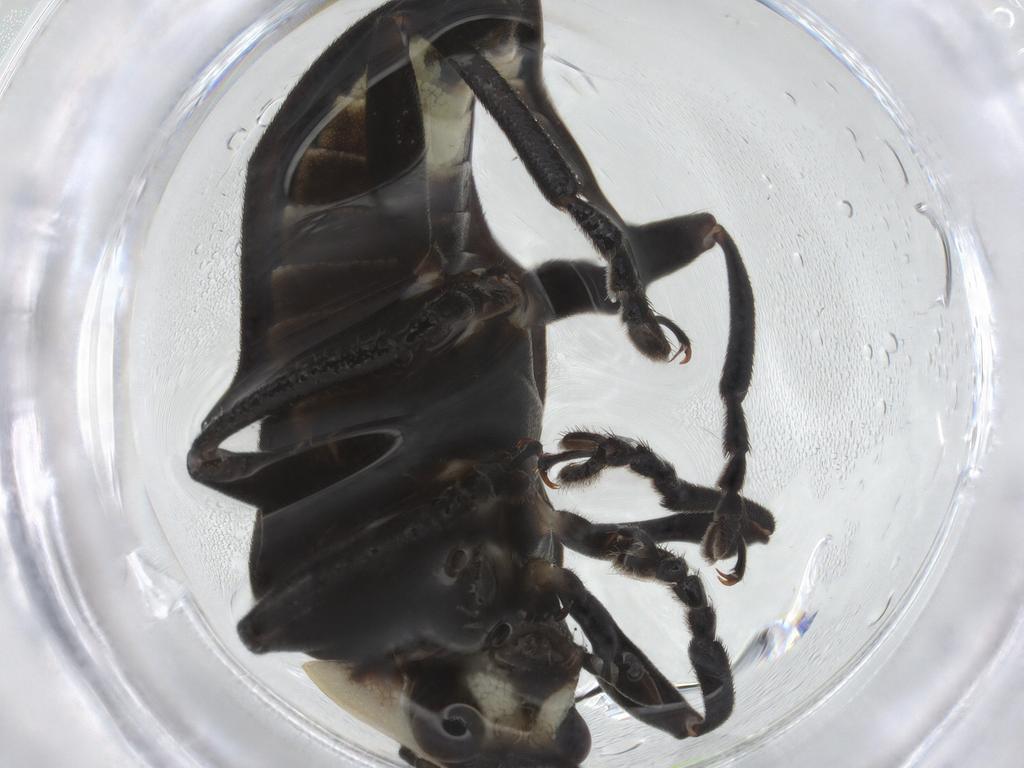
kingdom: Animalia
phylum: Arthropoda
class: Insecta
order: Coleoptera
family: Lampyridae
